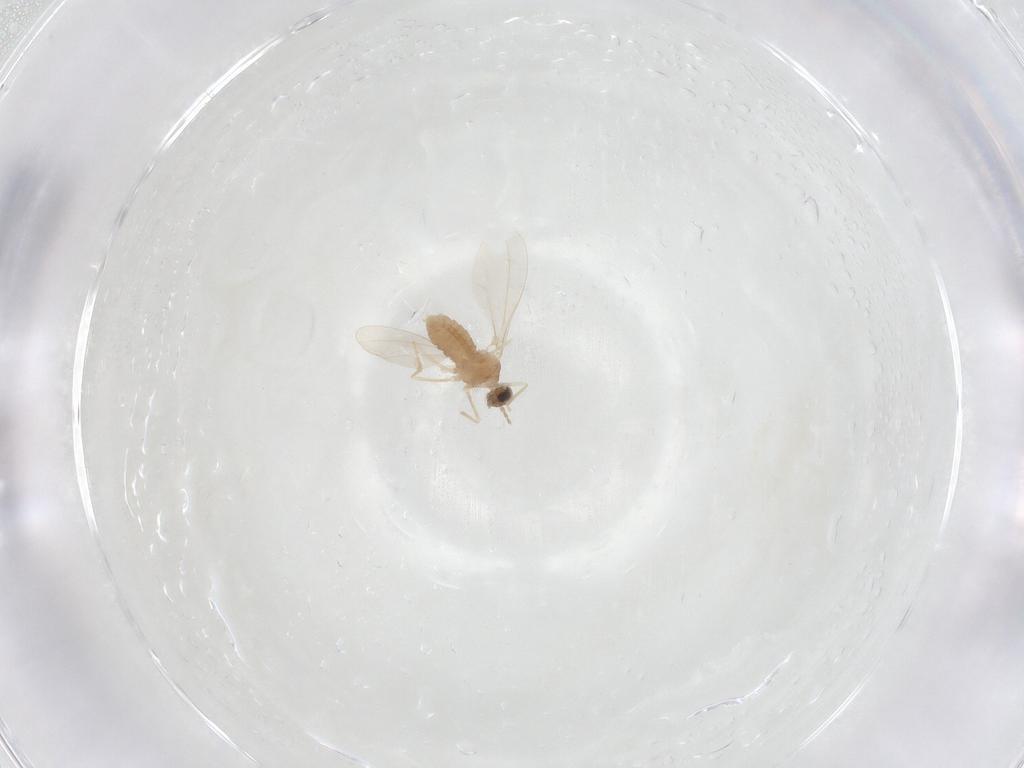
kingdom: Animalia
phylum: Arthropoda
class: Insecta
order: Diptera
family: Cecidomyiidae
